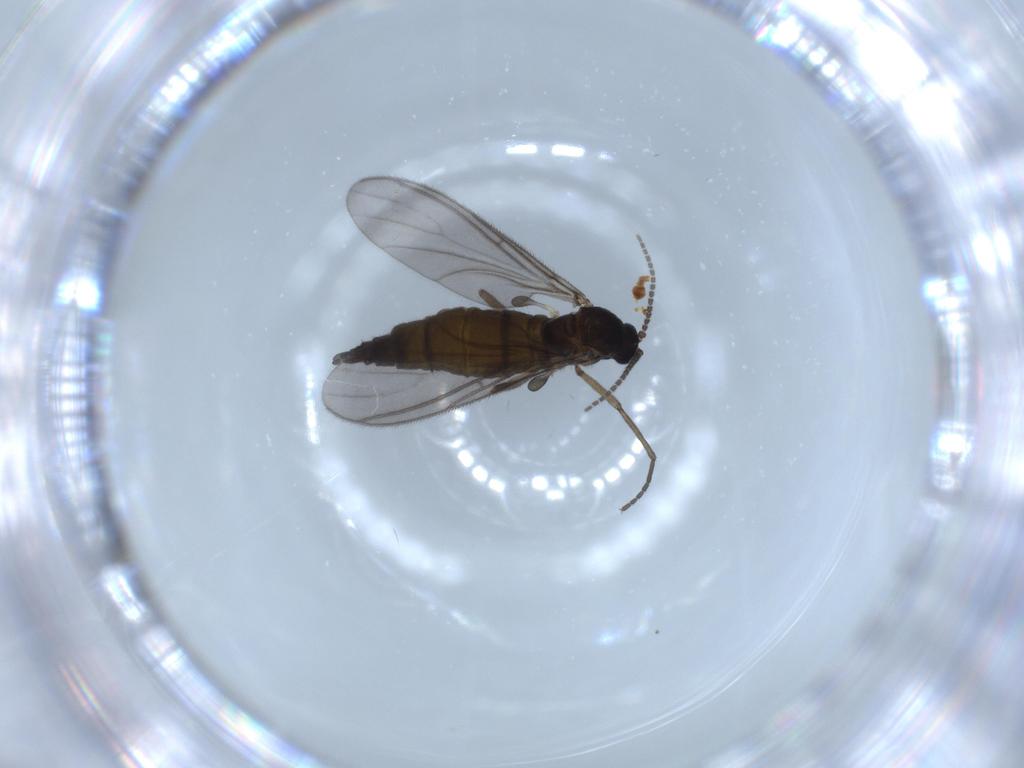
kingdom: Animalia
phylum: Arthropoda
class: Insecta
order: Diptera
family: Sciaridae
